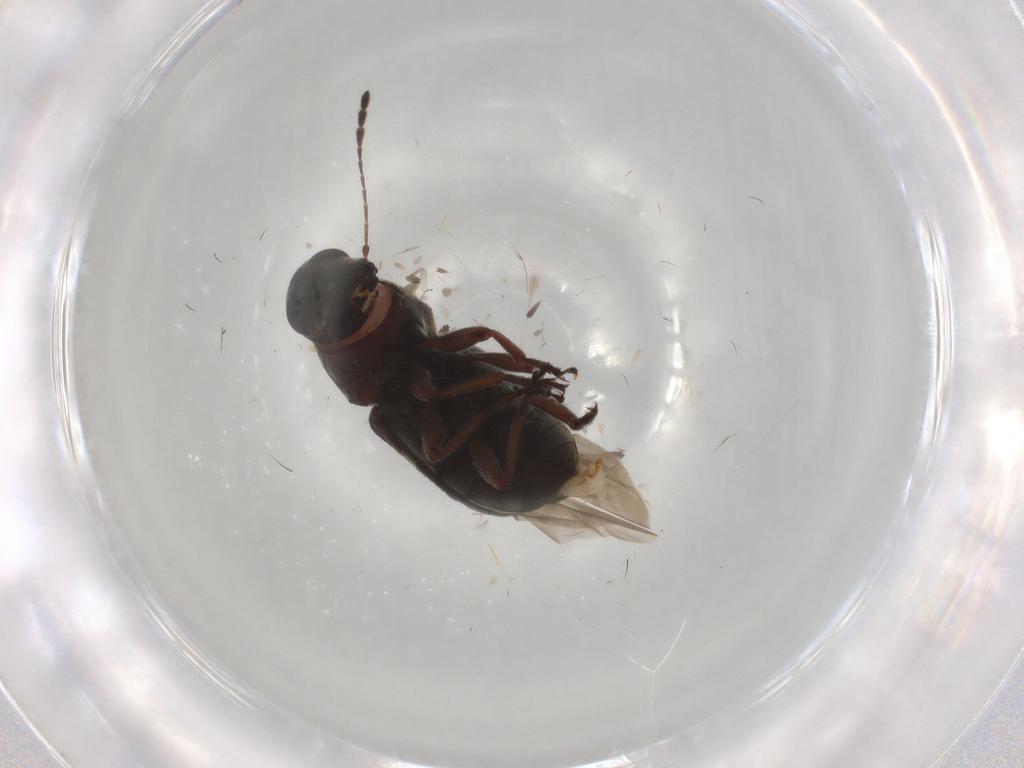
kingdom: Animalia
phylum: Arthropoda
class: Insecta
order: Coleoptera
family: Anthribidae
